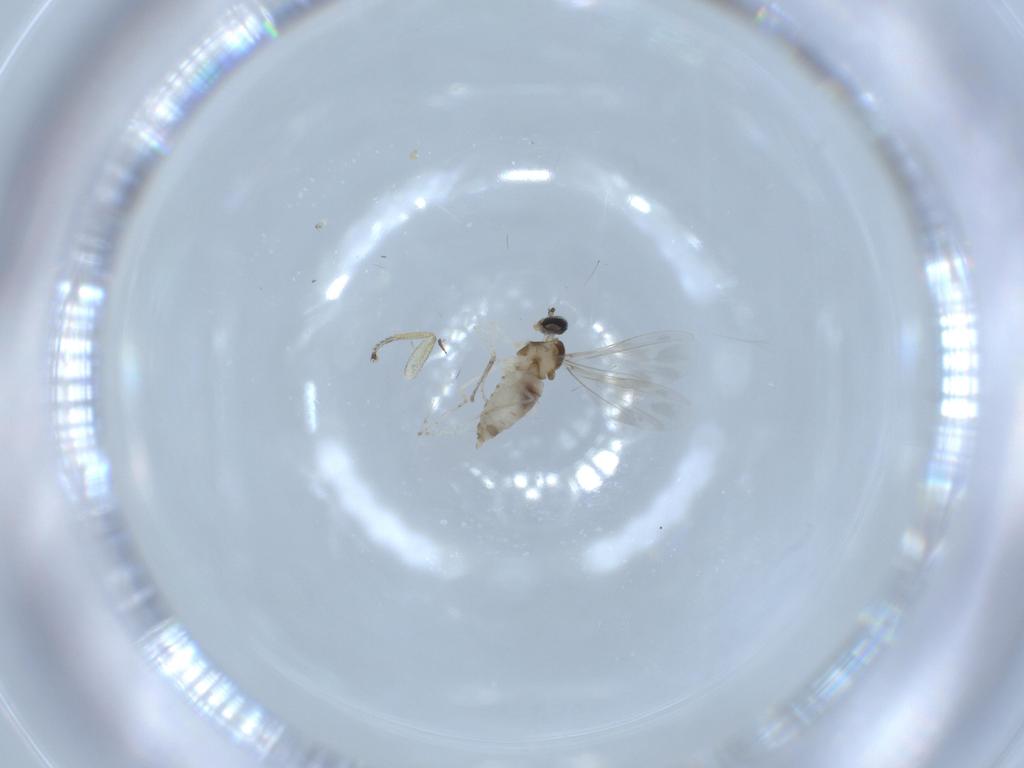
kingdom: Animalia
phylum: Arthropoda
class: Insecta
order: Diptera
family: Cecidomyiidae
